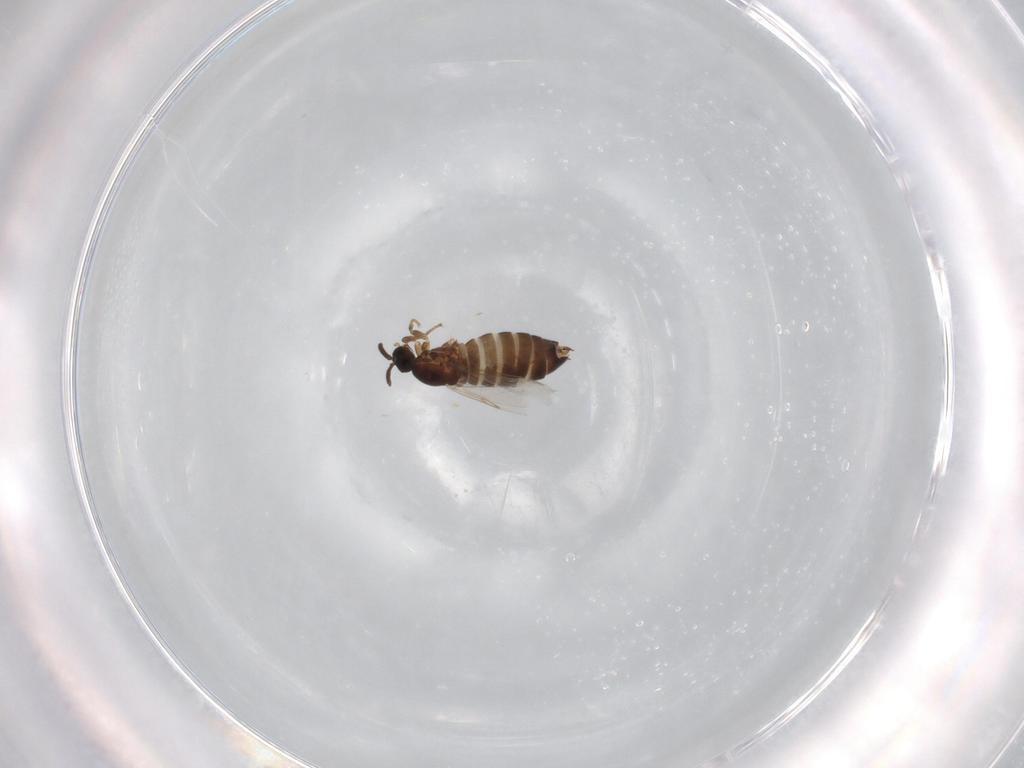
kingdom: Animalia
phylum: Arthropoda
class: Insecta
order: Diptera
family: Scatopsidae
